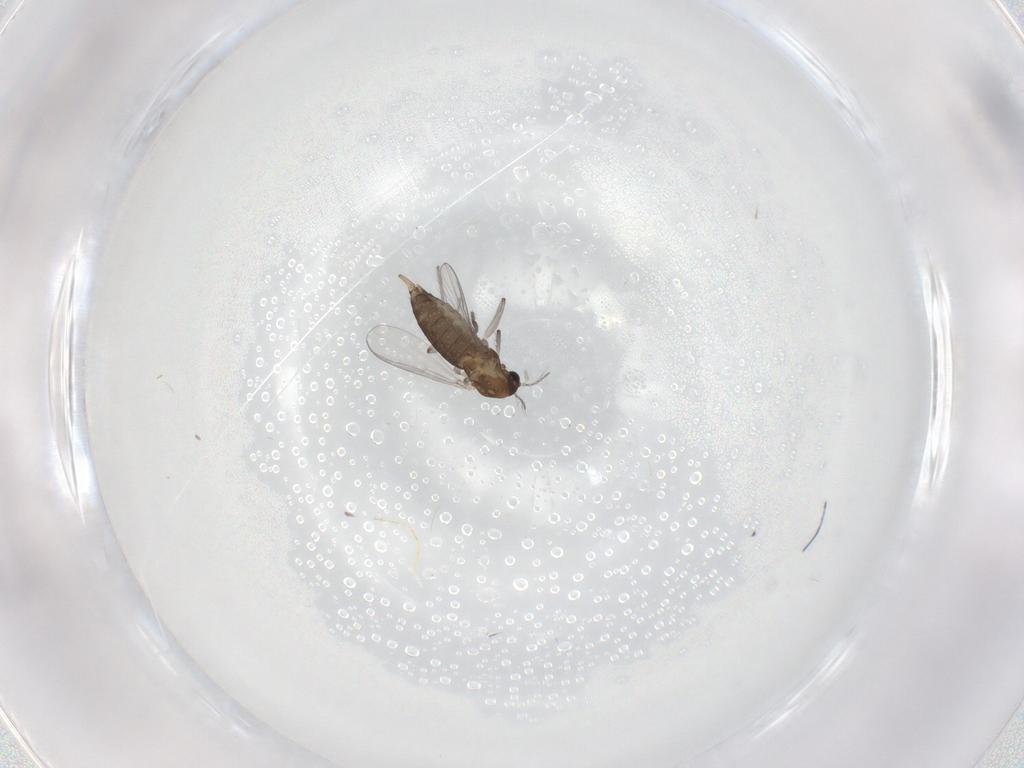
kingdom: Animalia
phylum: Arthropoda
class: Insecta
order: Diptera
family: Chironomidae
